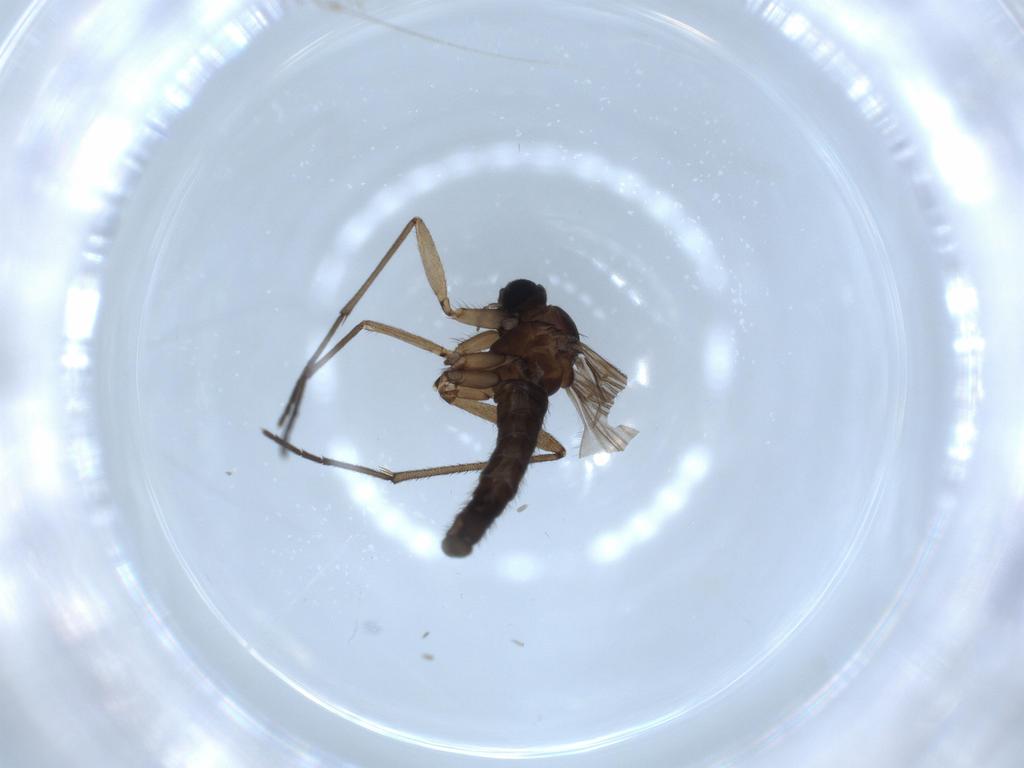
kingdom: Animalia
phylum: Arthropoda
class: Insecta
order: Diptera
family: Sciaridae
